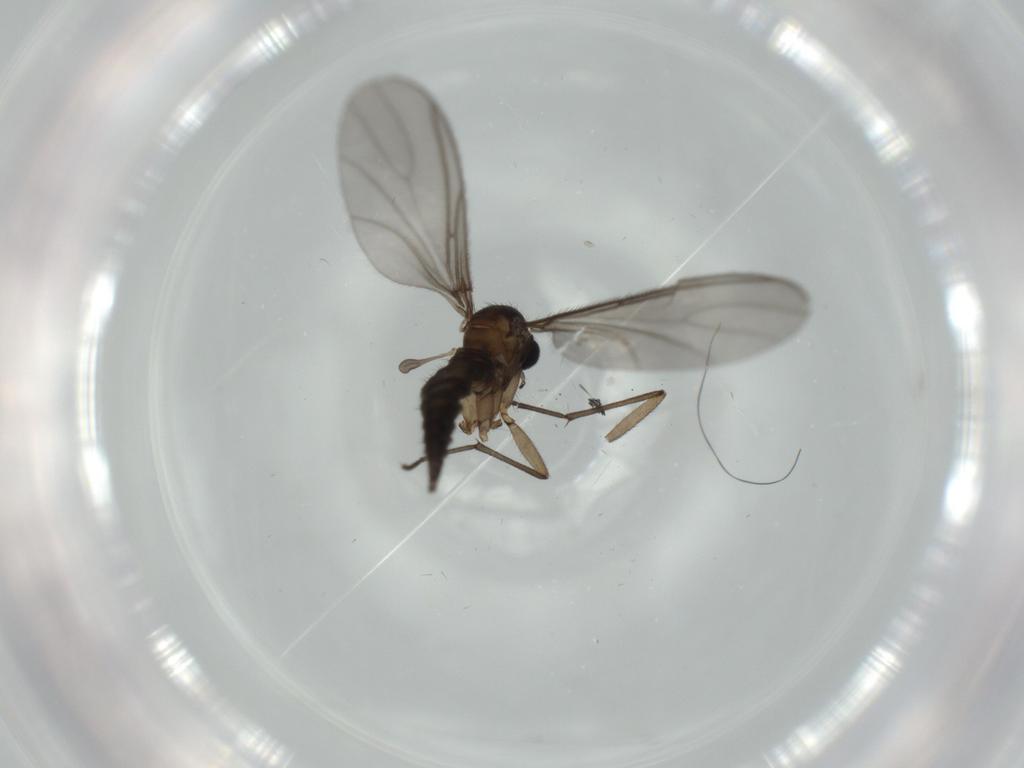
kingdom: Animalia
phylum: Arthropoda
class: Insecta
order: Diptera
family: Sciaridae
